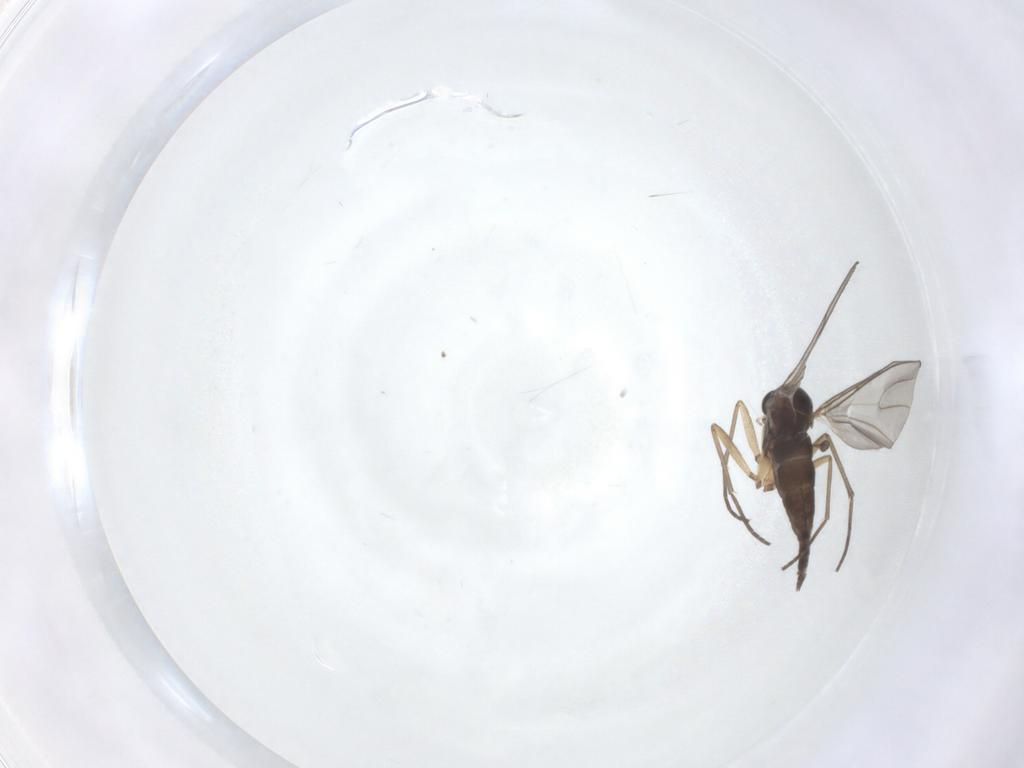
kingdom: Animalia
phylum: Arthropoda
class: Insecta
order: Diptera
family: Sciaridae
